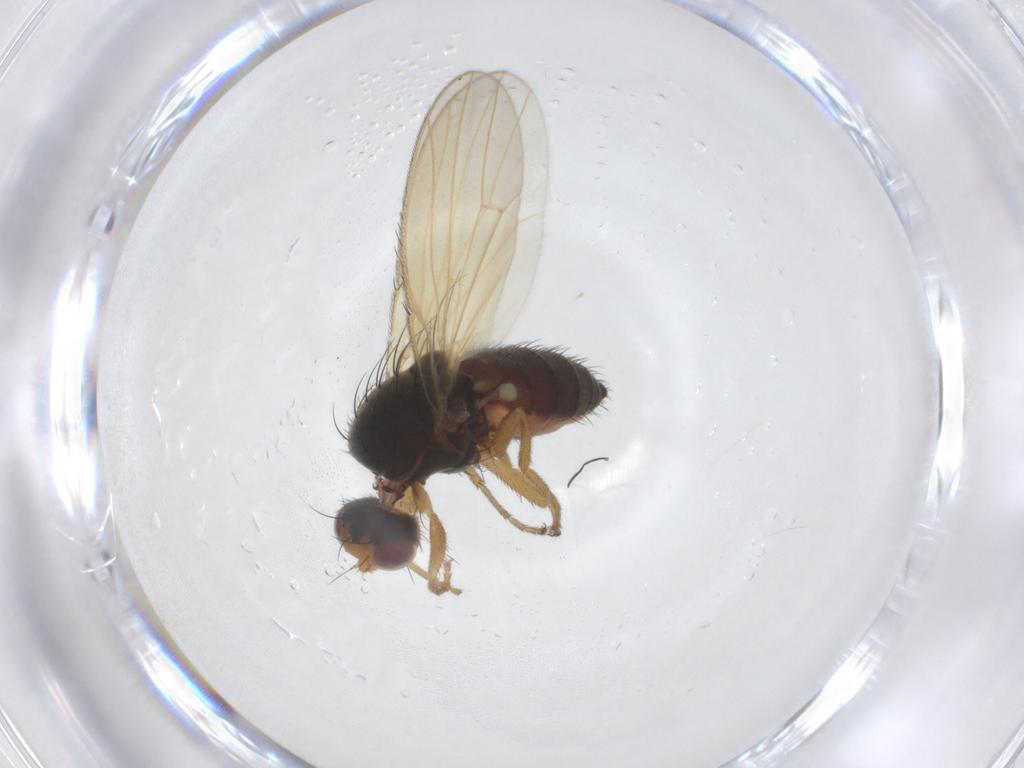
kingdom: Animalia
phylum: Arthropoda
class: Insecta
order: Diptera
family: Heleomyzidae
